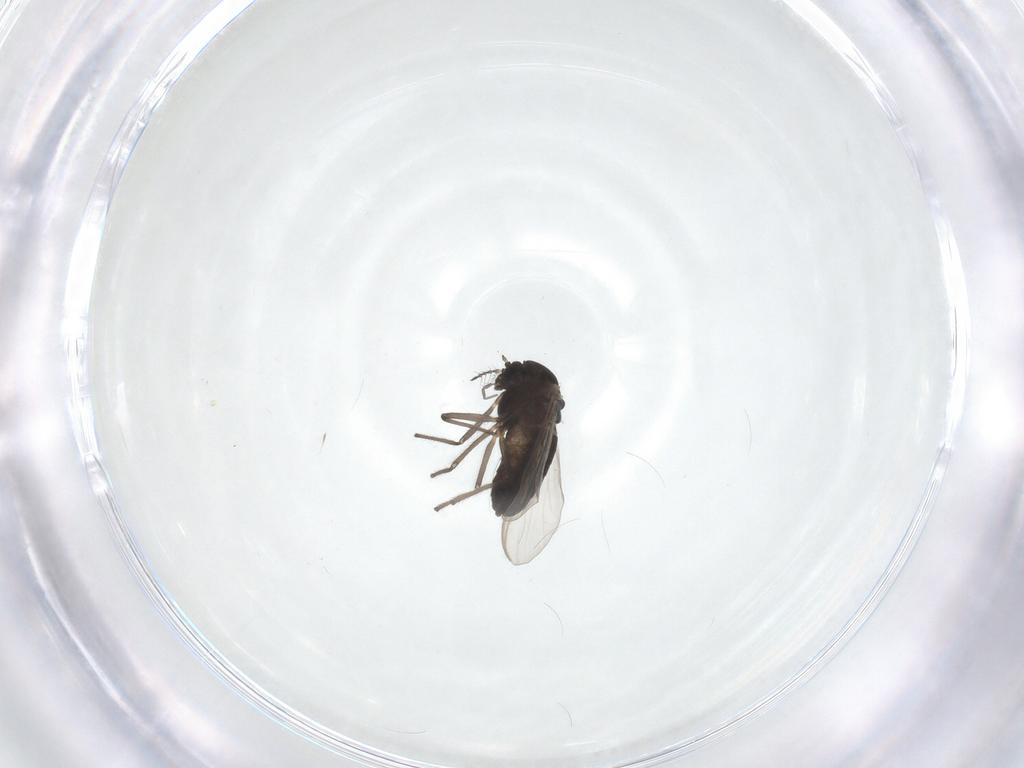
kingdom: Animalia
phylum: Arthropoda
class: Insecta
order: Diptera
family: Chironomidae
